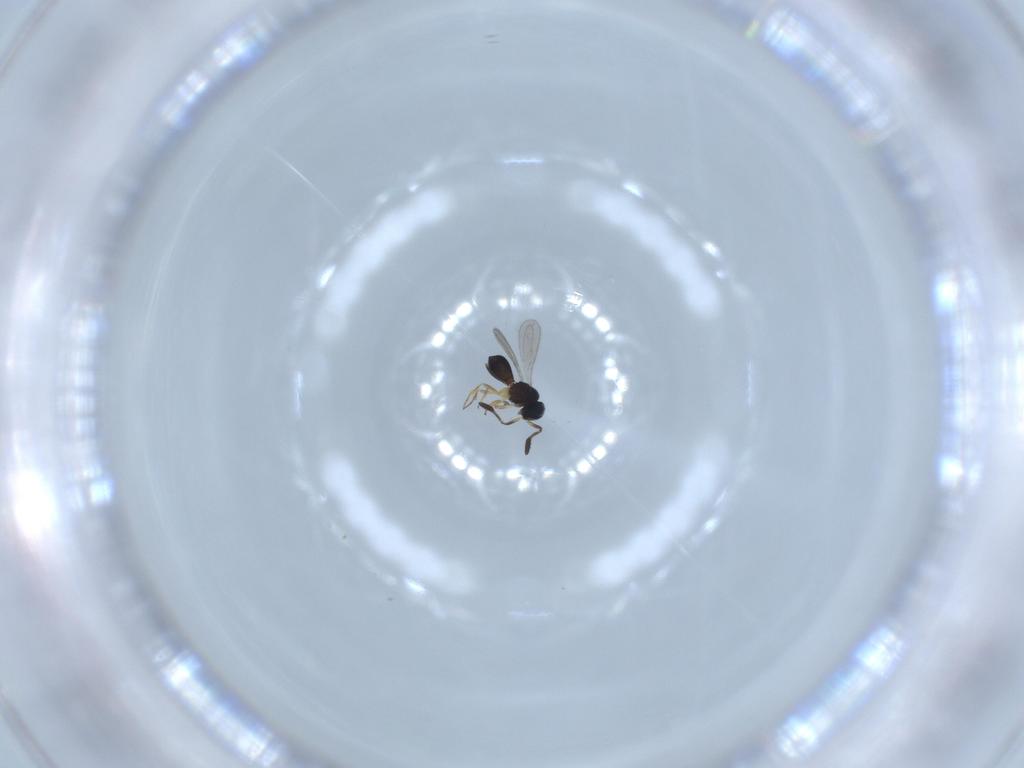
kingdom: Animalia
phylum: Arthropoda
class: Insecta
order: Hymenoptera
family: Scelionidae
